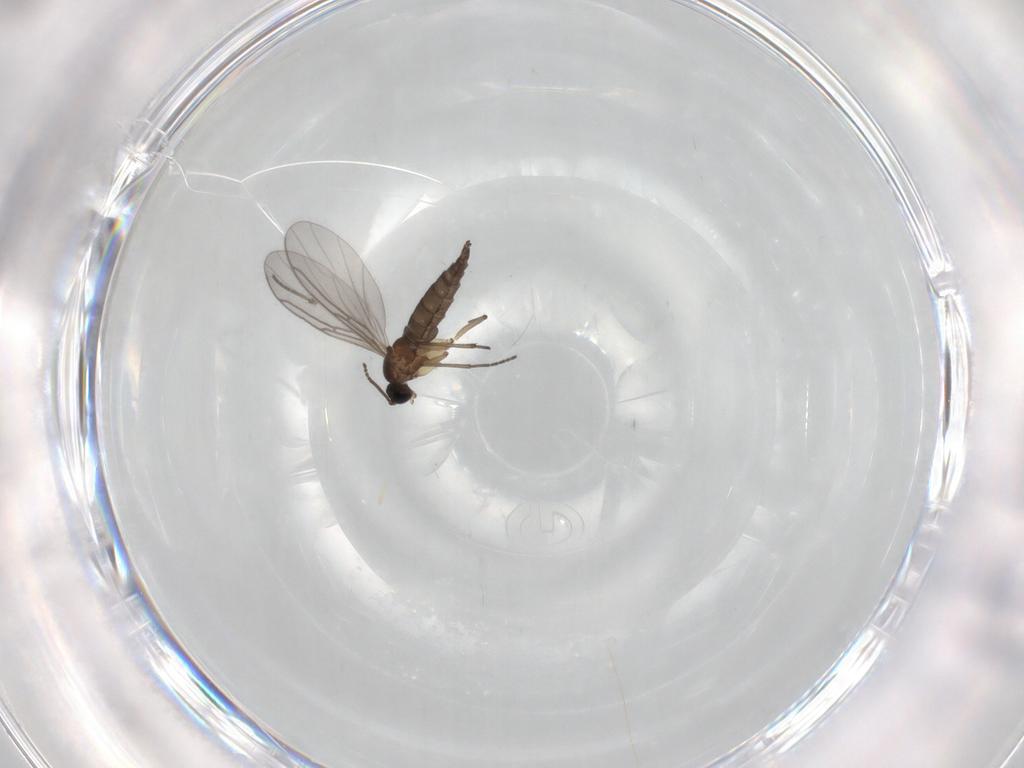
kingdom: Animalia
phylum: Arthropoda
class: Insecta
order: Diptera
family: Sciaridae
